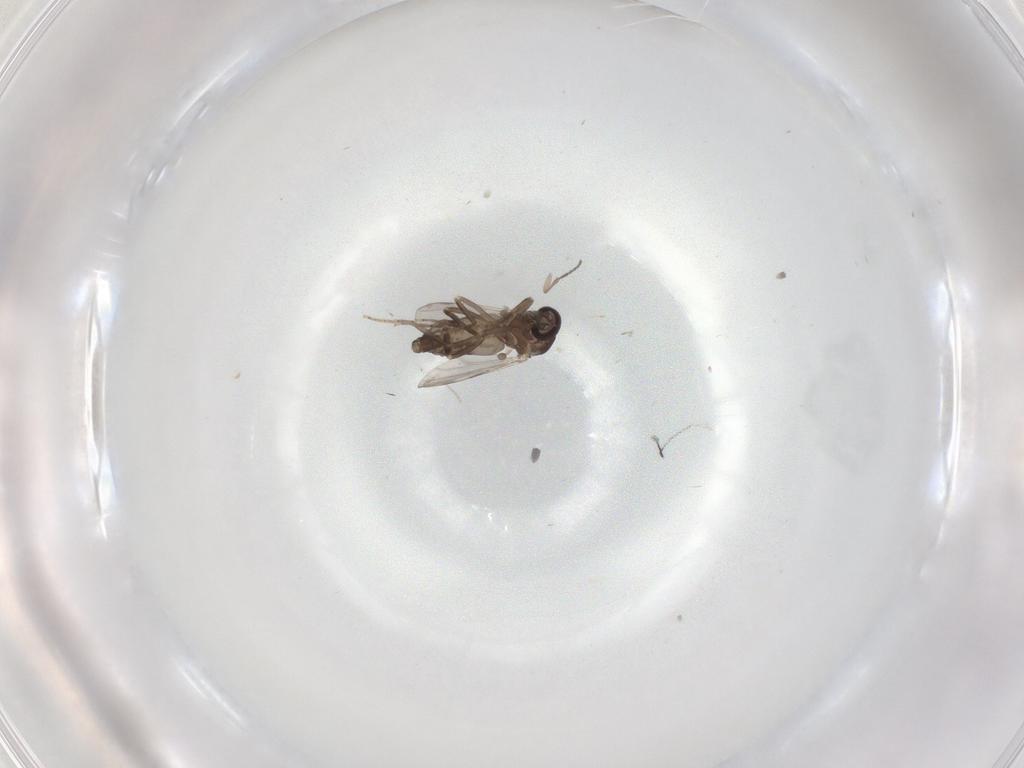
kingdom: Animalia
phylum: Arthropoda
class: Insecta
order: Diptera
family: Ceratopogonidae
